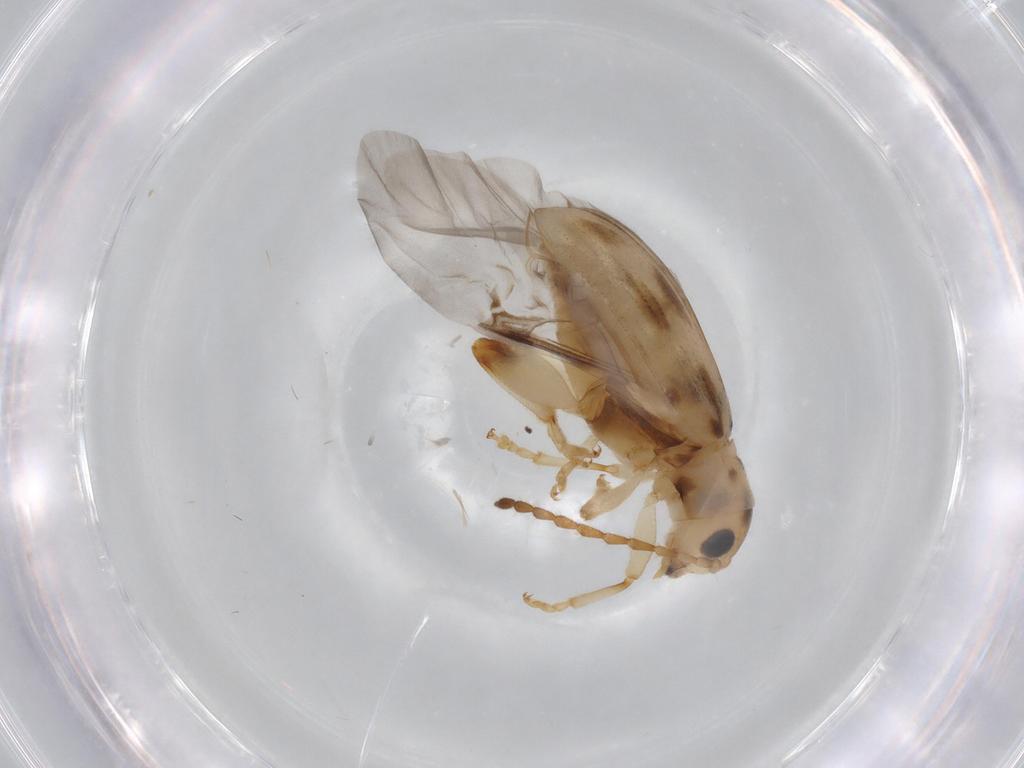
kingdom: Animalia
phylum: Arthropoda
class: Insecta
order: Coleoptera
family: Chrysomelidae
